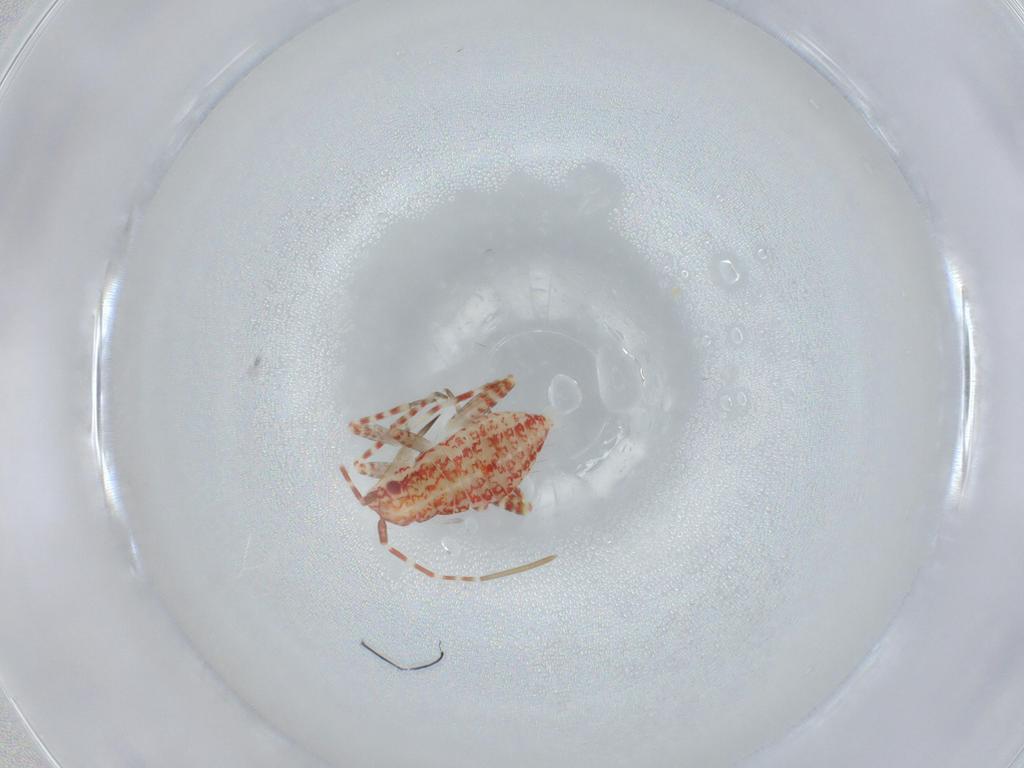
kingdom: Animalia
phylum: Arthropoda
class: Insecta
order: Hemiptera
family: Miridae
